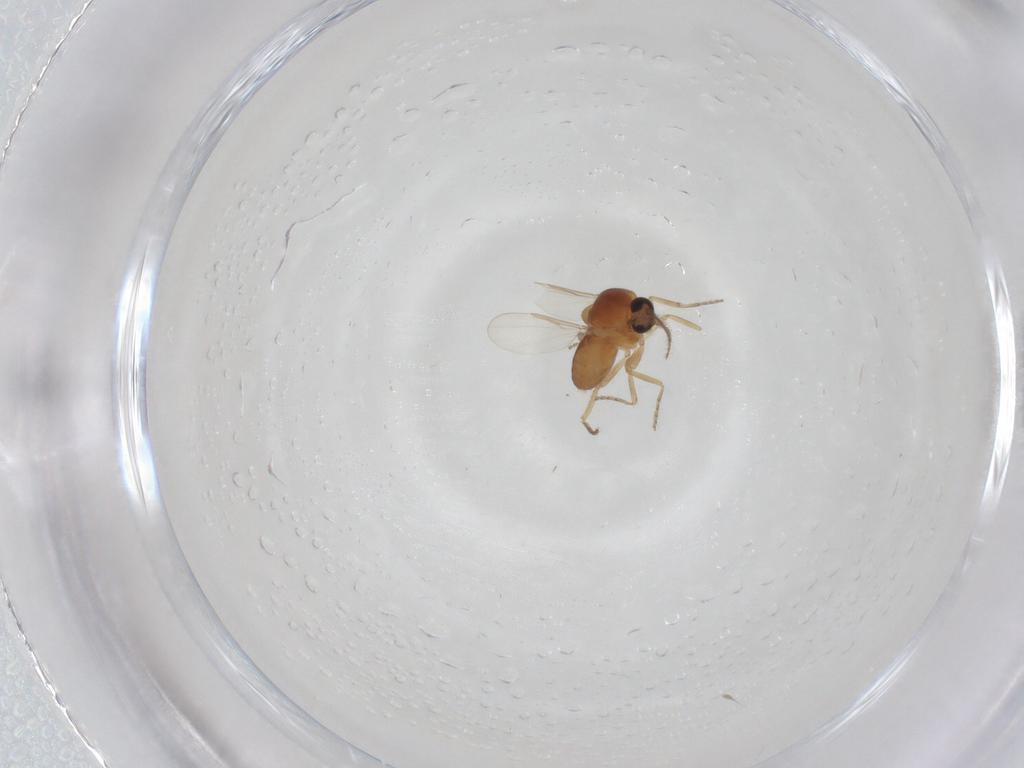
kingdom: Animalia
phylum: Arthropoda
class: Insecta
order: Diptera
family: Ceratopogonidae
